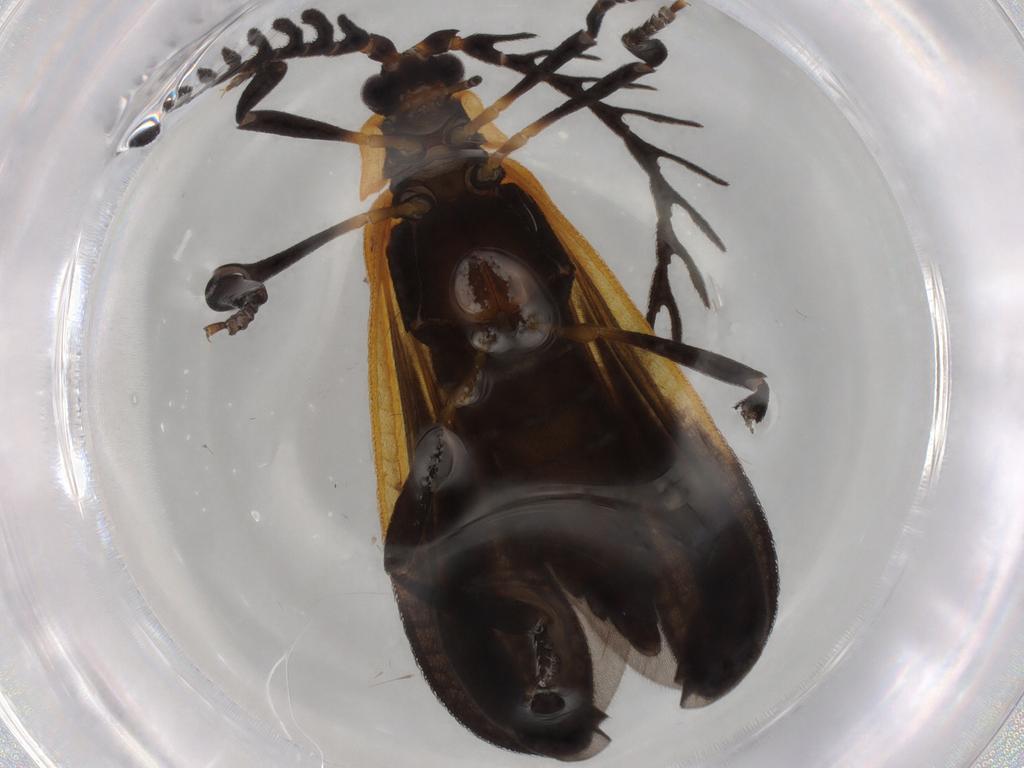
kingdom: Animalia
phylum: Arthropoda
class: Insecta
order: Coleoptera
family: Lycidae
